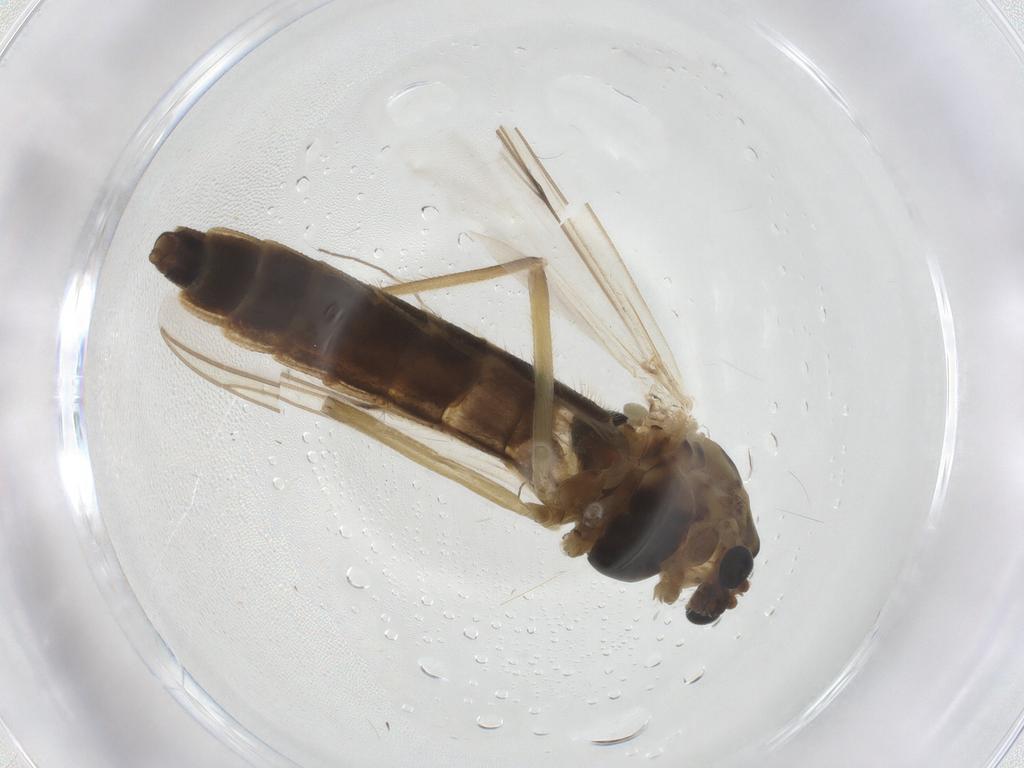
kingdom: Animalia
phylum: Arthropoda
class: Insecta
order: Diptera
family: Chironomidae
